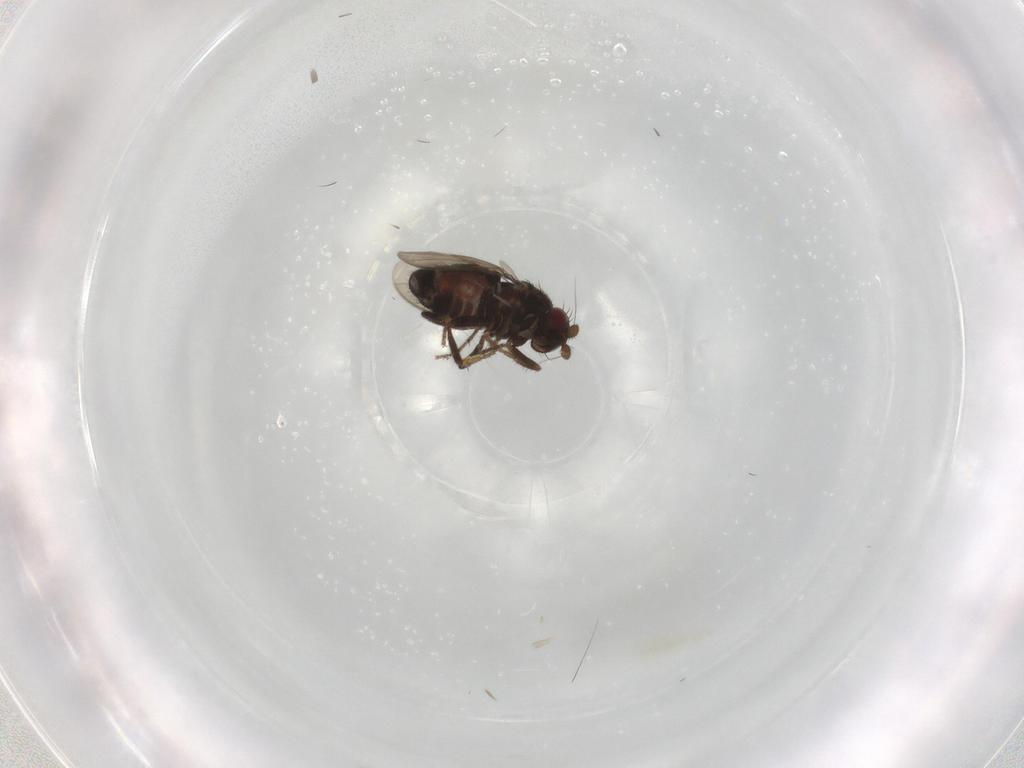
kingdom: Animalia
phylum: Arthropoda
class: Insecta
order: Diptera
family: Sphaeroceridae
